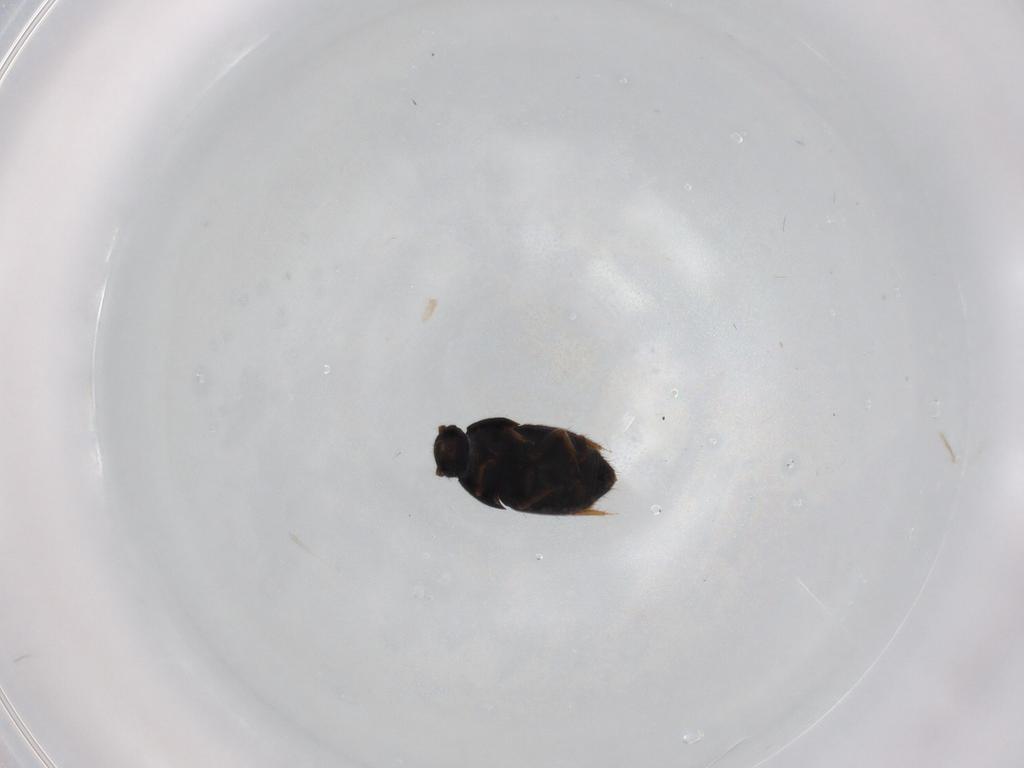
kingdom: Animalia
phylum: Arthropoda
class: Insecta
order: Coleoptera
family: Ptiliidae
